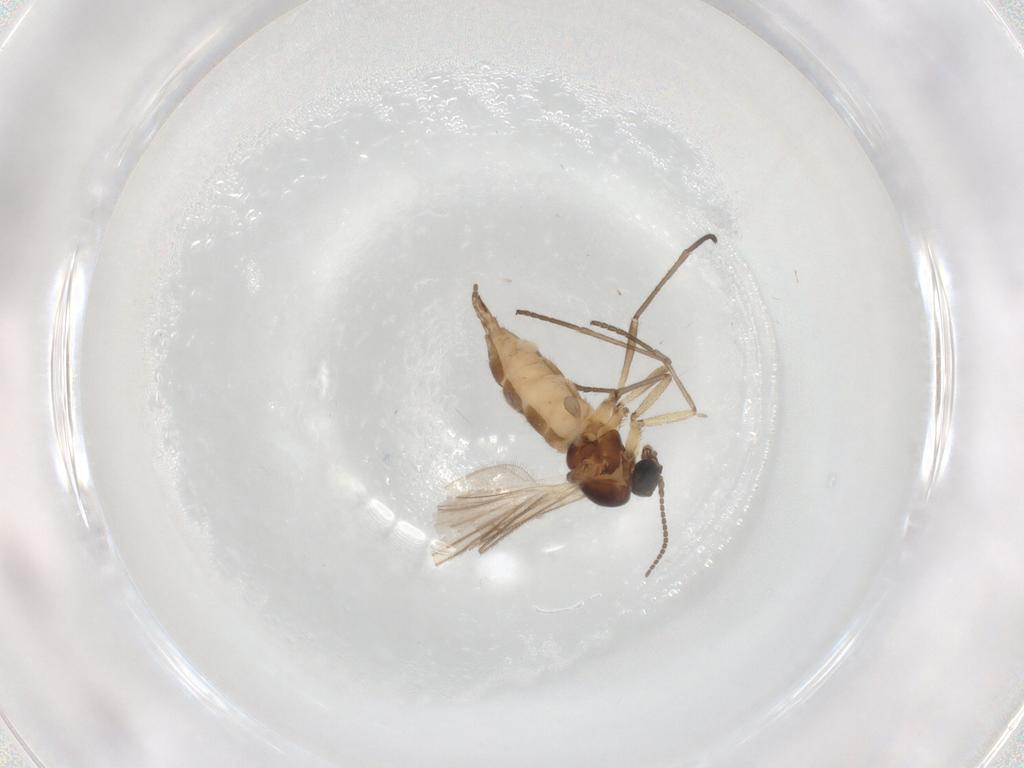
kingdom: Animalia
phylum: Arthropoda
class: Insecta
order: Diptera
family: Sciaridae
